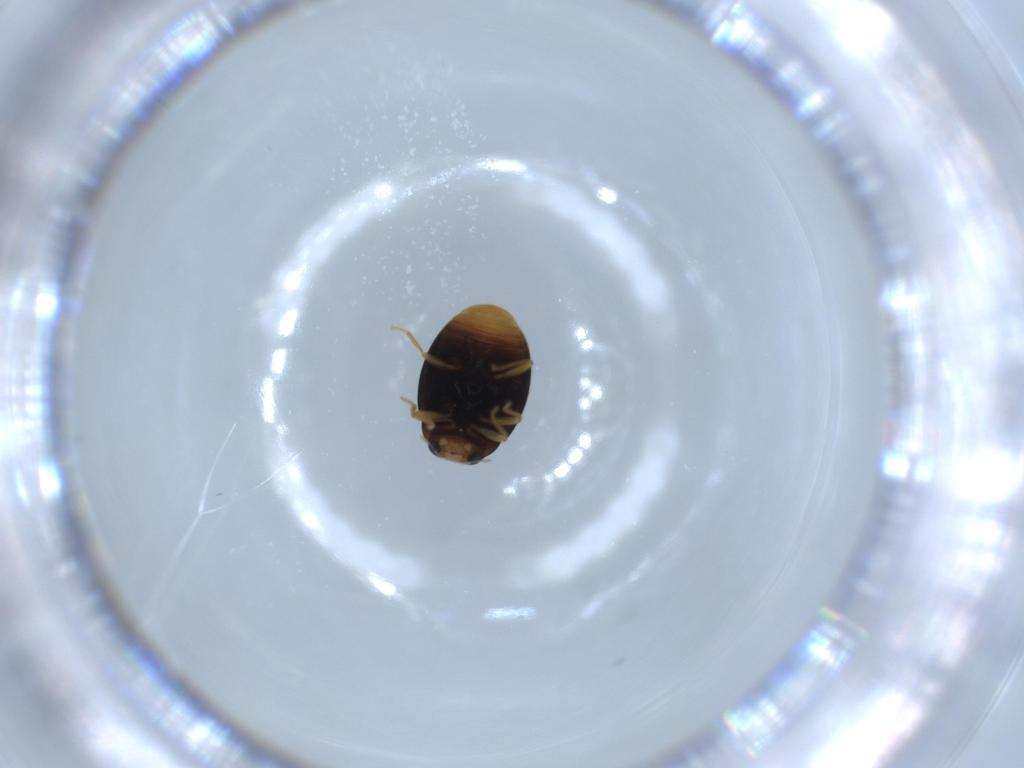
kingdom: Animalia
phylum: Arthropoda
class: Insecta
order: Coleoptera
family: Coccinellidae
